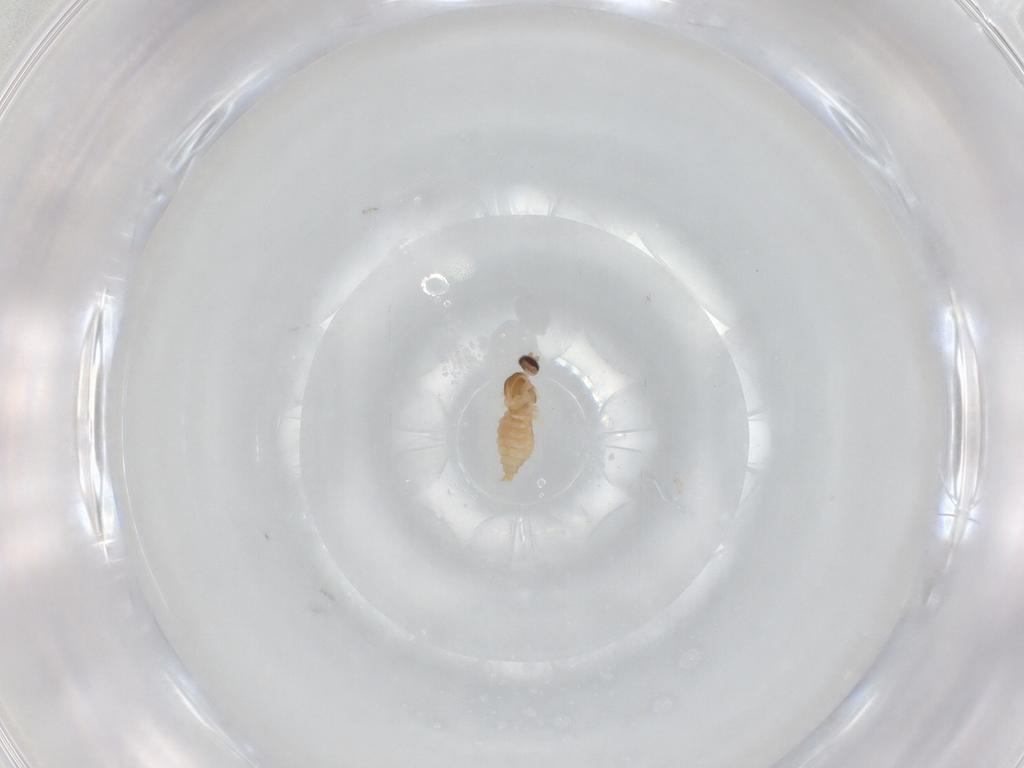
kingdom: Animalia
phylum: Arthropoda
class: Insecta
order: Diptera
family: Cecidomyiidae
